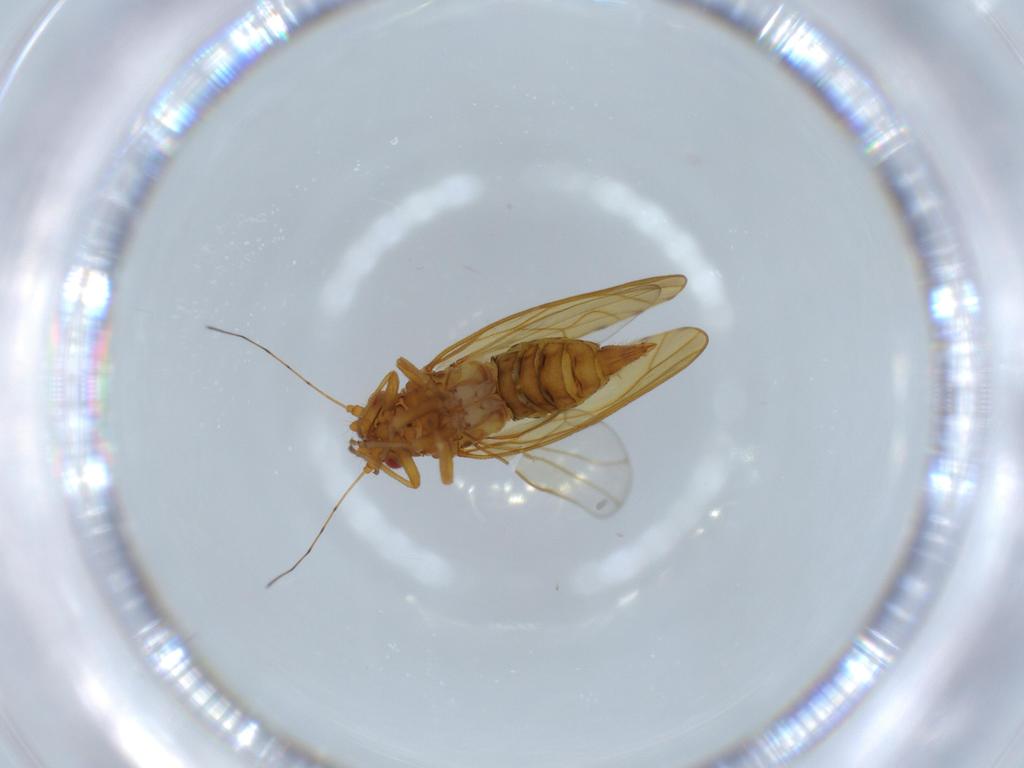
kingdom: Animalia
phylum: Arthropoda
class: Insecta
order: Hemiptera
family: Psylloidea_incertae_sedis
